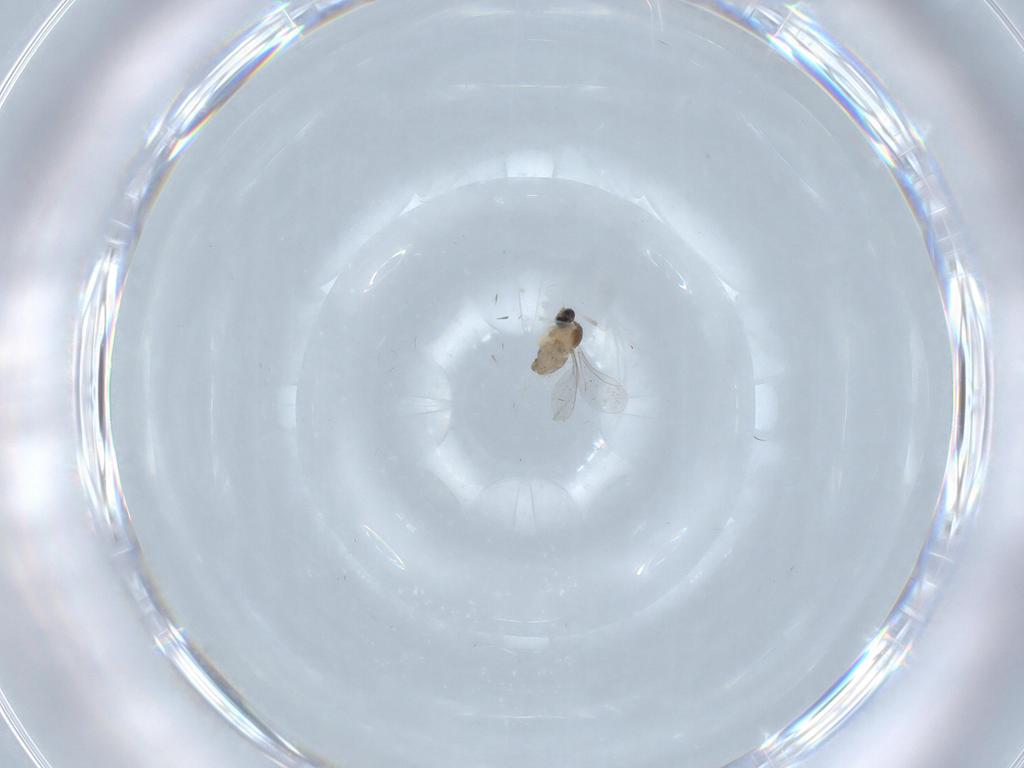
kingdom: Animalia
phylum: Arthropoda
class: Insecta
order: Diptera
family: Cecidomyiidae
